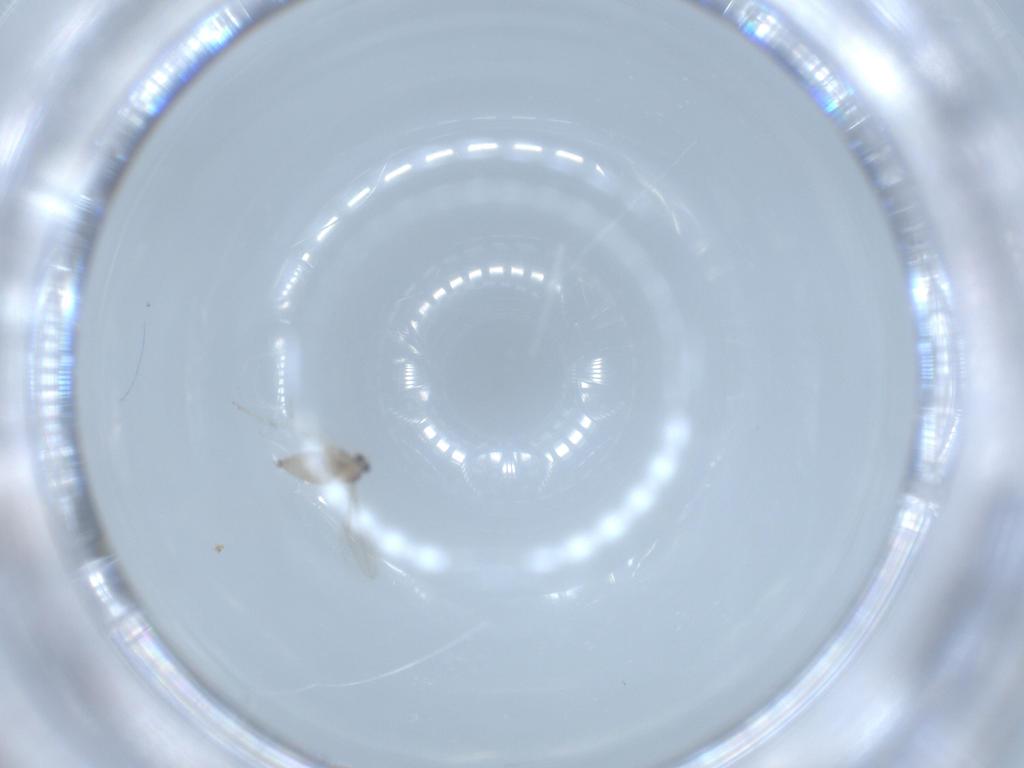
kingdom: Animalia
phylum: Arthropoda
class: Insecta
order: Diptera
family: Cecidomyiidae
